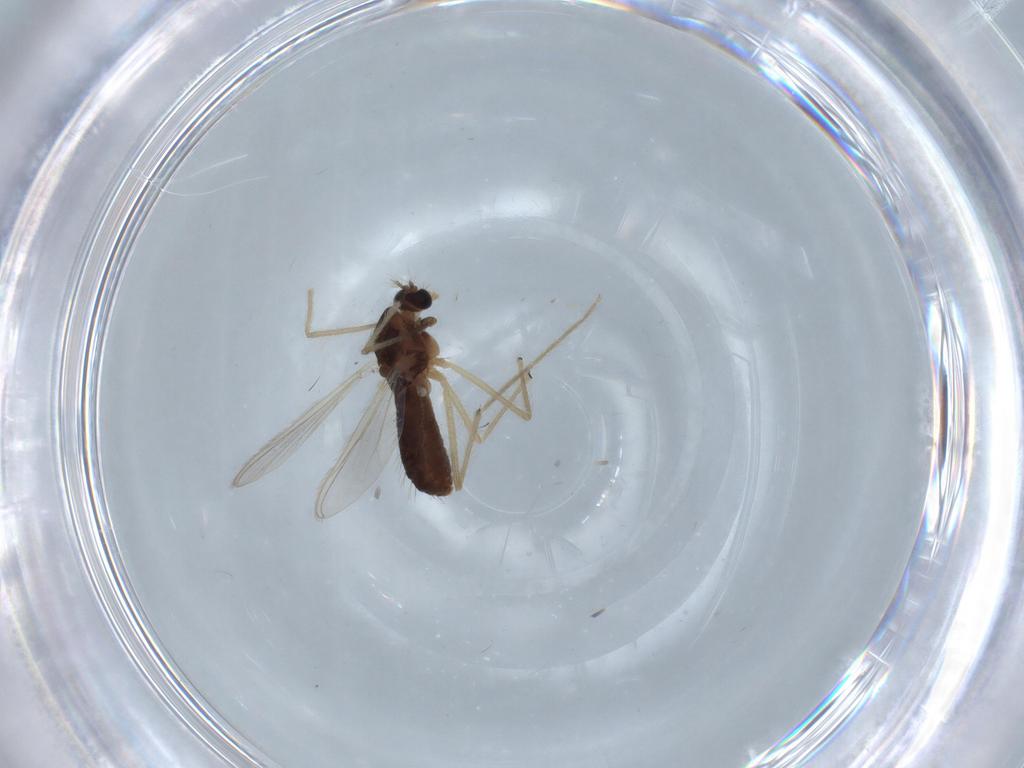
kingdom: Animalia
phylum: Arthropoda
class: Insecta
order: Diptera
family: Chironomidae
